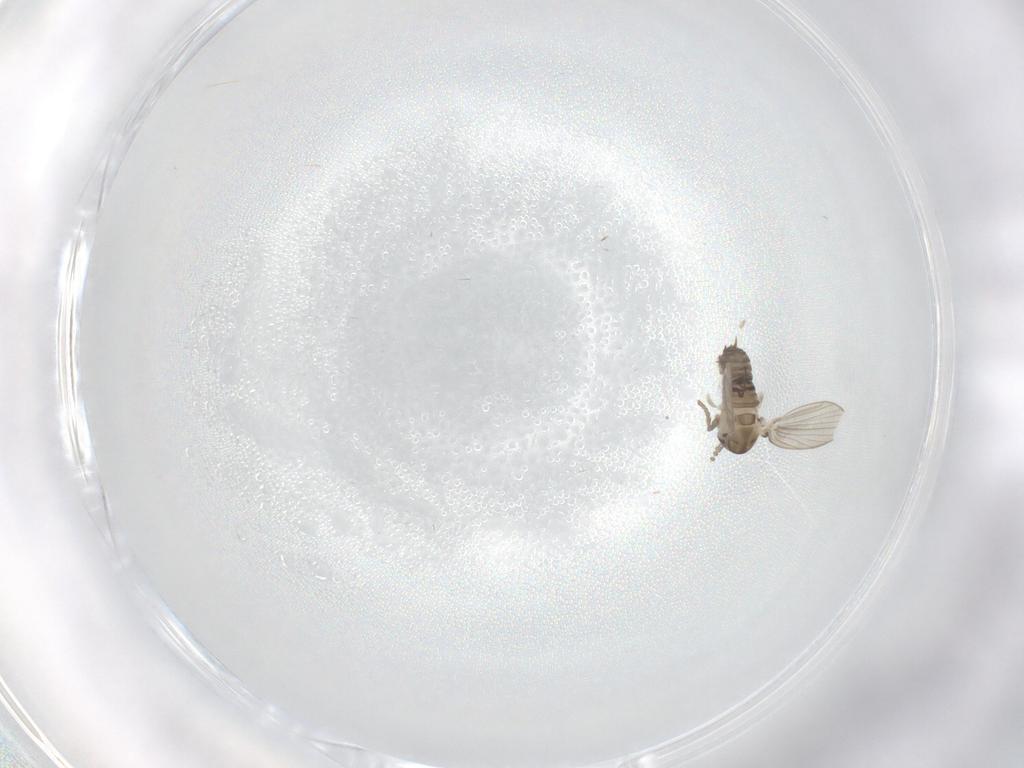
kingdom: Animalia
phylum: Arthropoda
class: Insecta
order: Diptera
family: Psychodidae
